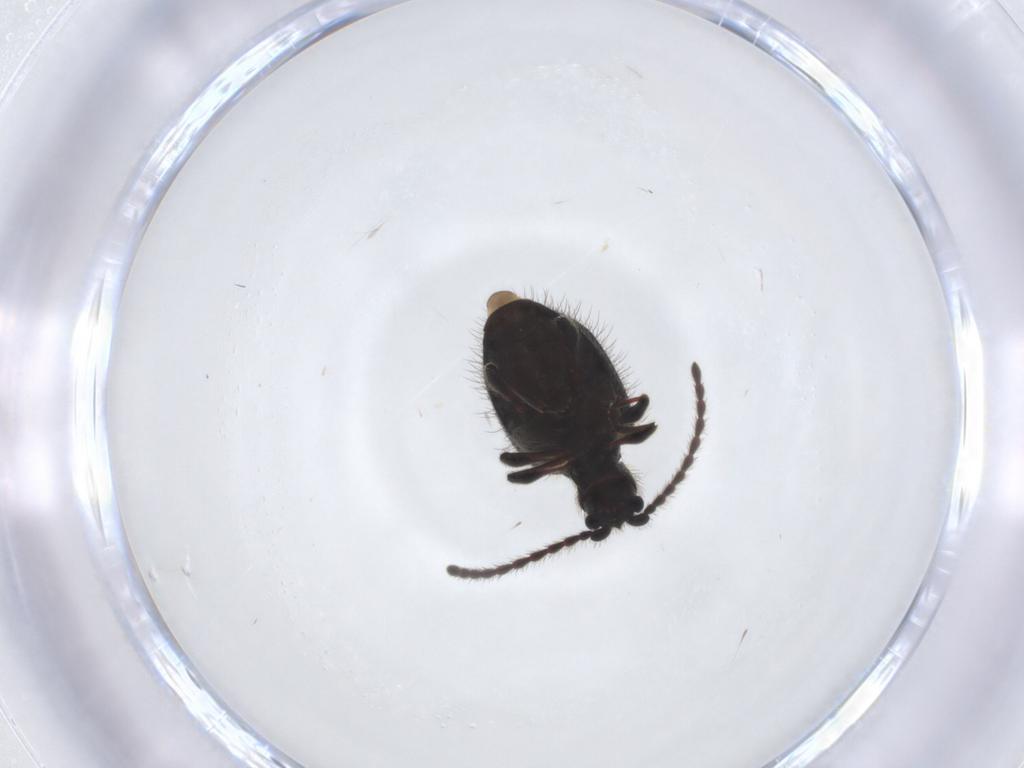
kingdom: Animalia
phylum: Arthropoda
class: Insecta
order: Coleoptera
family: Ptinidae
